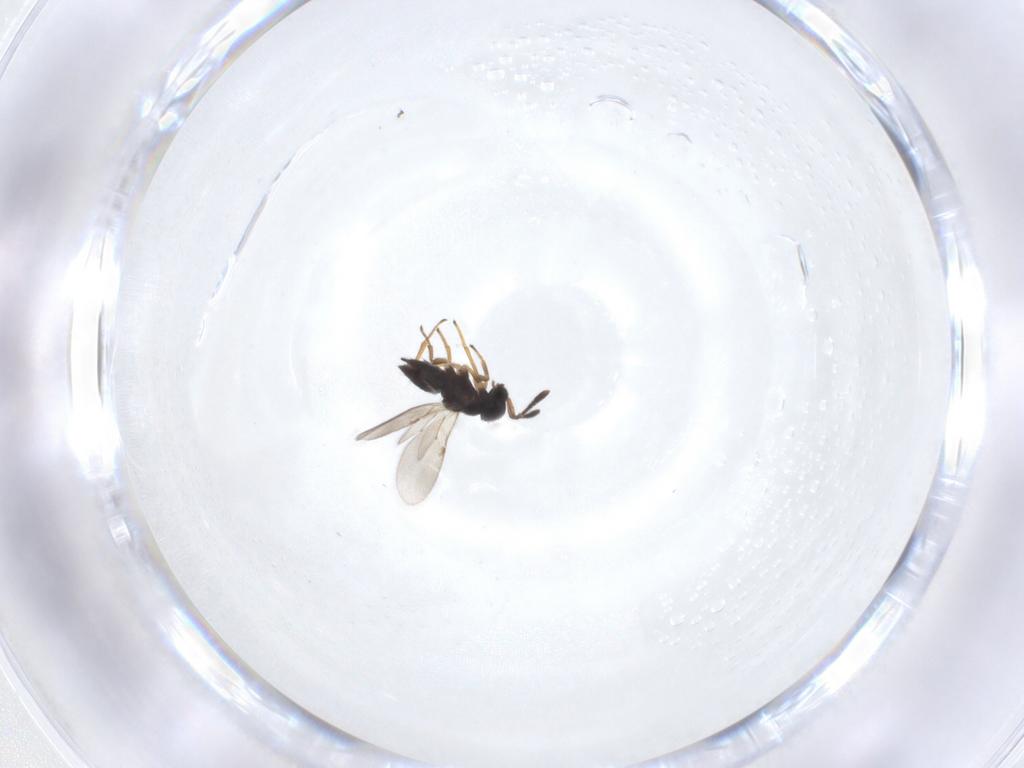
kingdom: Animalia
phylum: Arthropoda
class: Insecta
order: Hymenoptera
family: Encyrtidae
